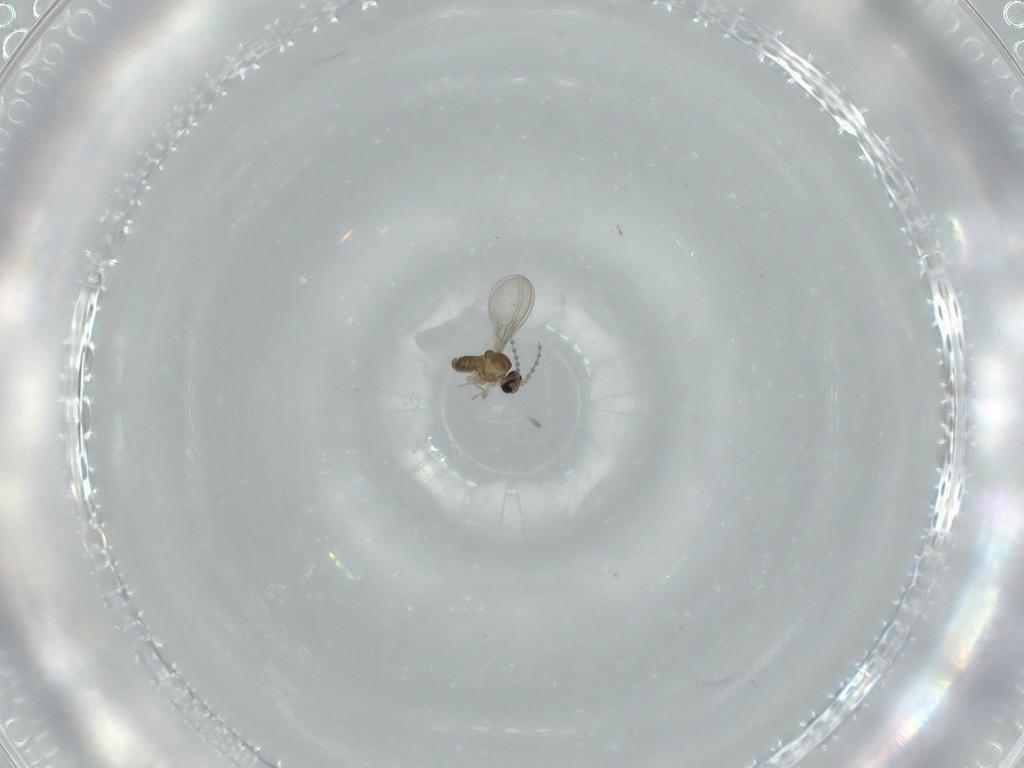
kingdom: Animalia
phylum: Arthropoda
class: Insecta
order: Diptera
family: Cecidomyiidae
